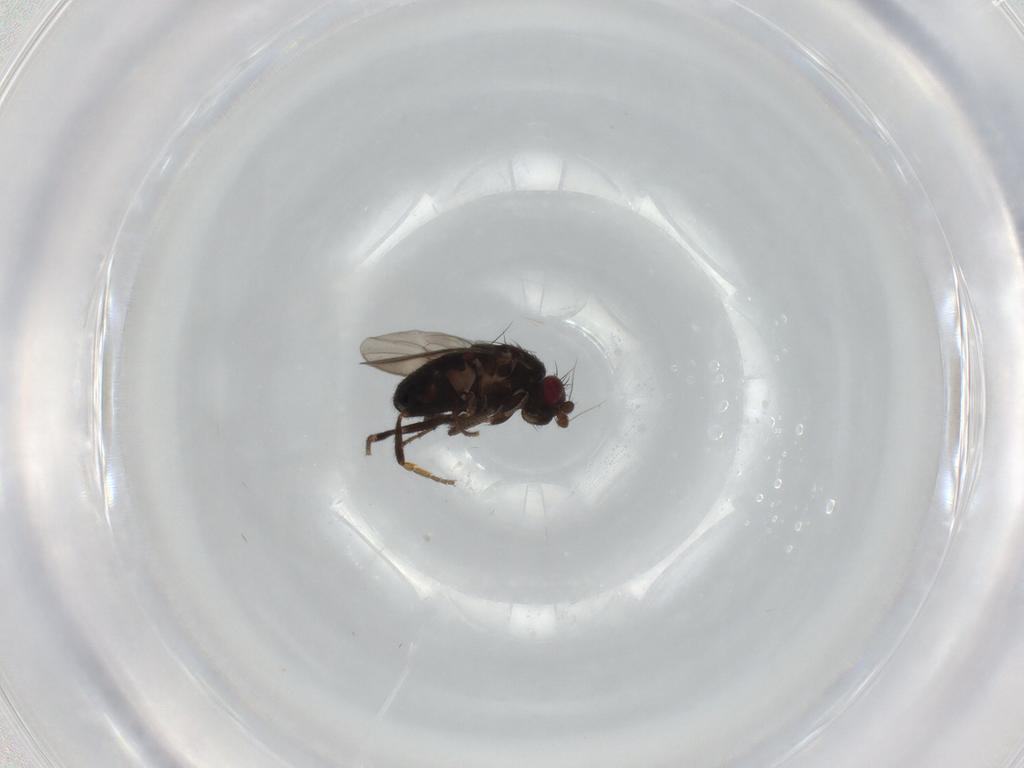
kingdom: Animalia
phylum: Arthropoda
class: Insecta
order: Diptera
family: Sphaeroceridae
